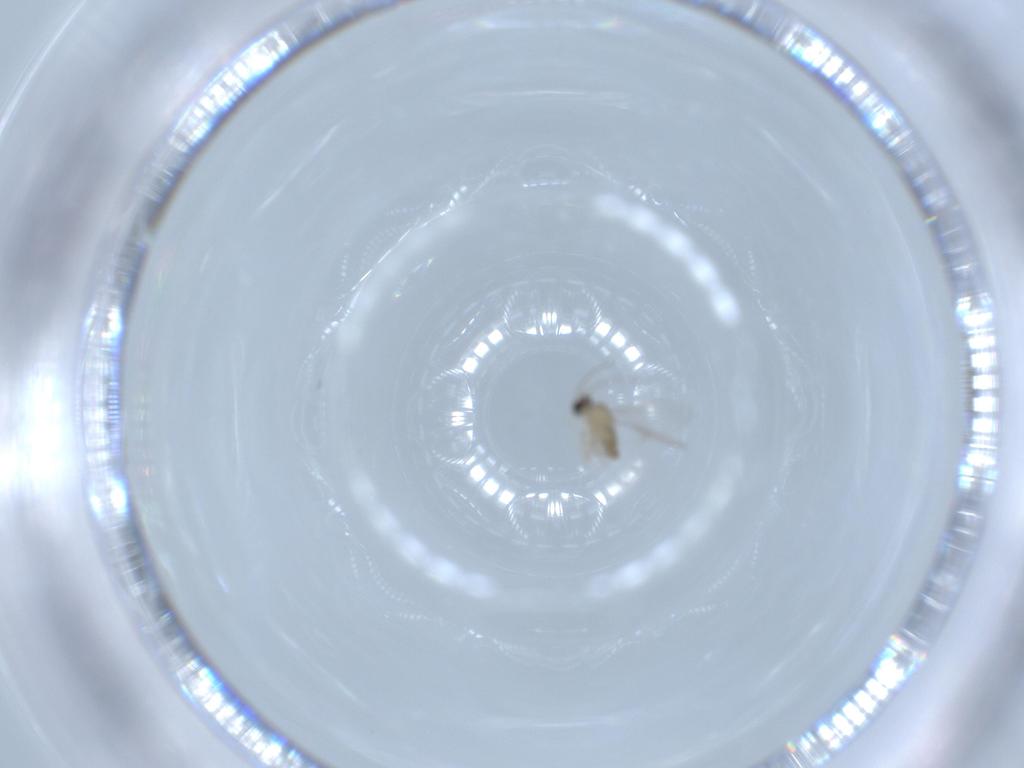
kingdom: Animalia
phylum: Arthropoda
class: Insecta
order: Diptera
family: Cecidomyiidae
